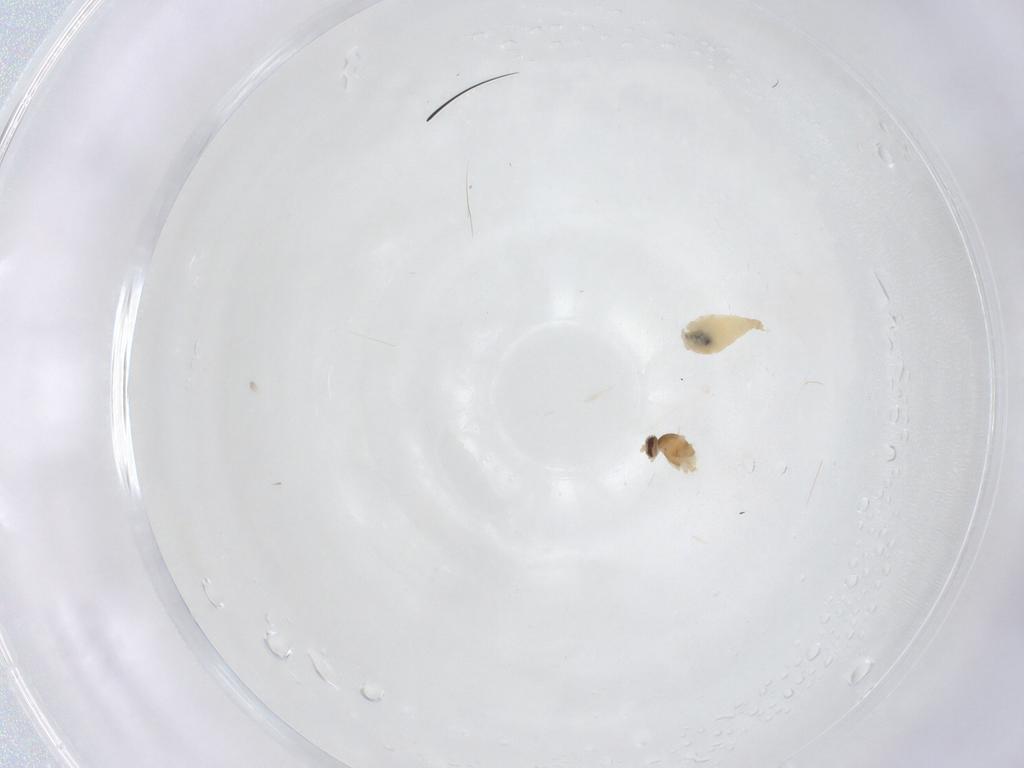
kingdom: Animalia
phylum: Arthropoda
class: Insecta
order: Diptera
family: Cecidomyiidae
